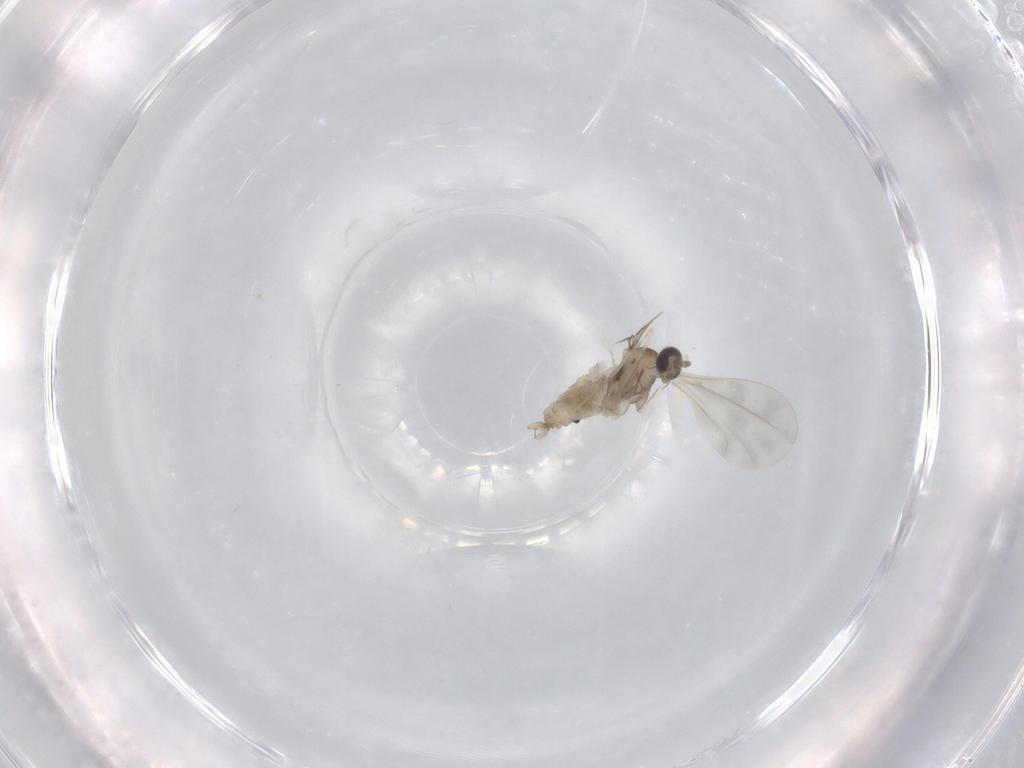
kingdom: Animalia
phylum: Arthropoda
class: Insecta
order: Diptera
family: Cecidomyiidae
